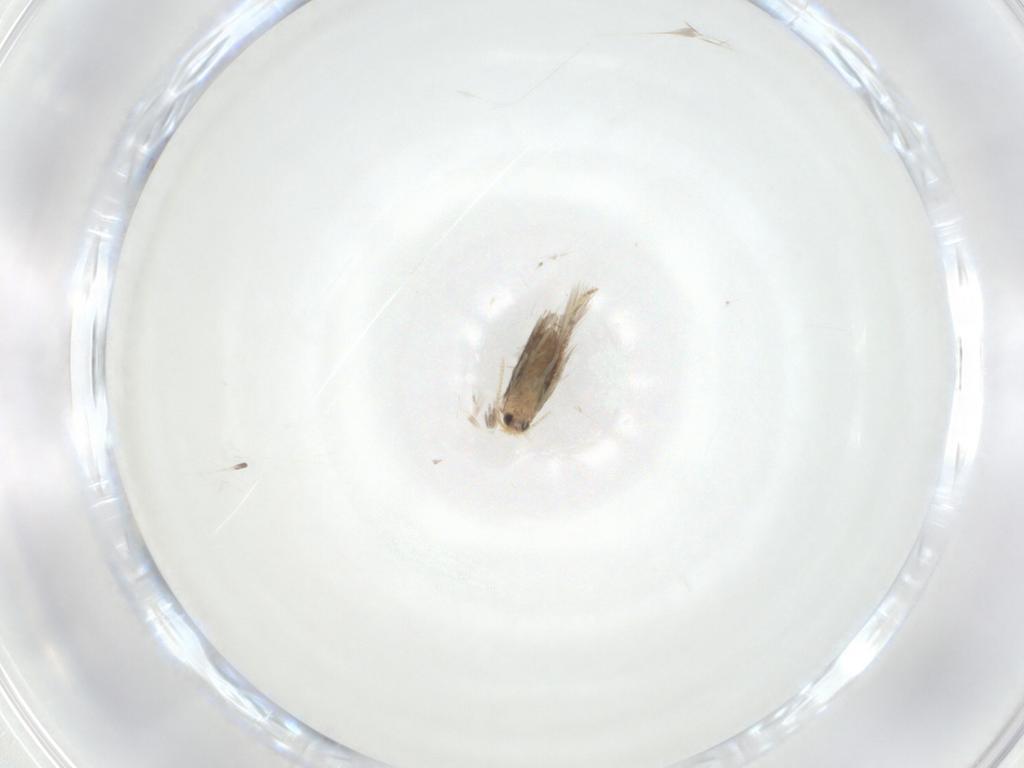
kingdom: Animalia
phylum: Arthropoda
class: Insecta
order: Lepidoptera
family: Nepticulidae
